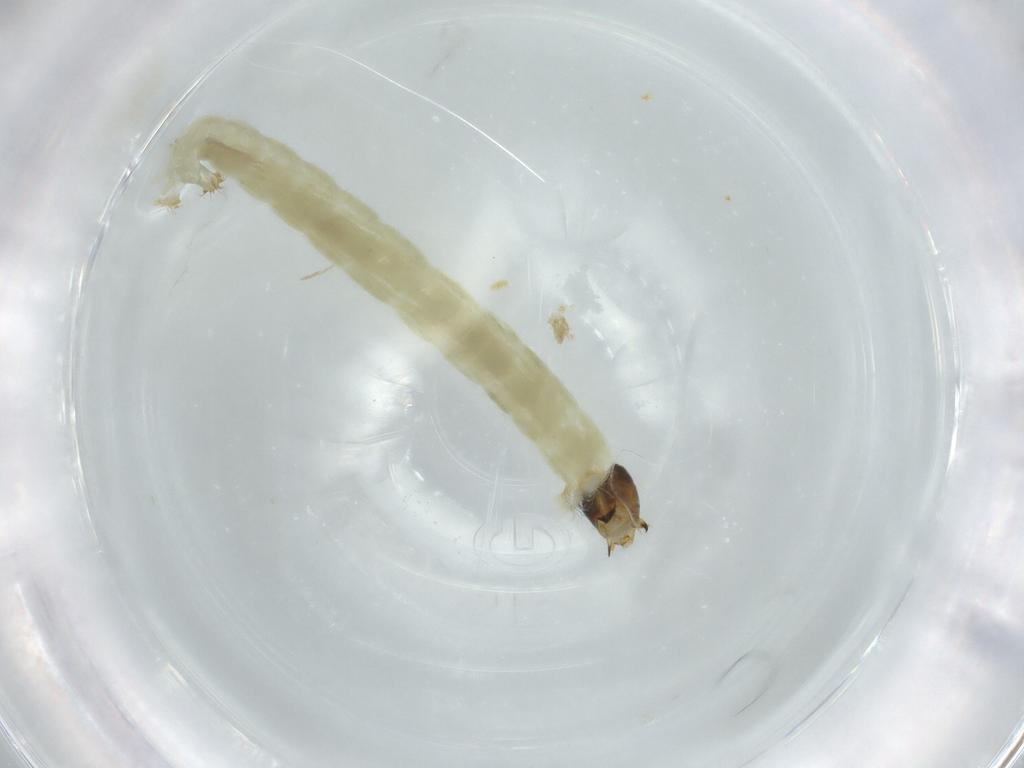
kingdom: Animalia
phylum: Arthropoda
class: Insecta
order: Diptera
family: Chironomidae
